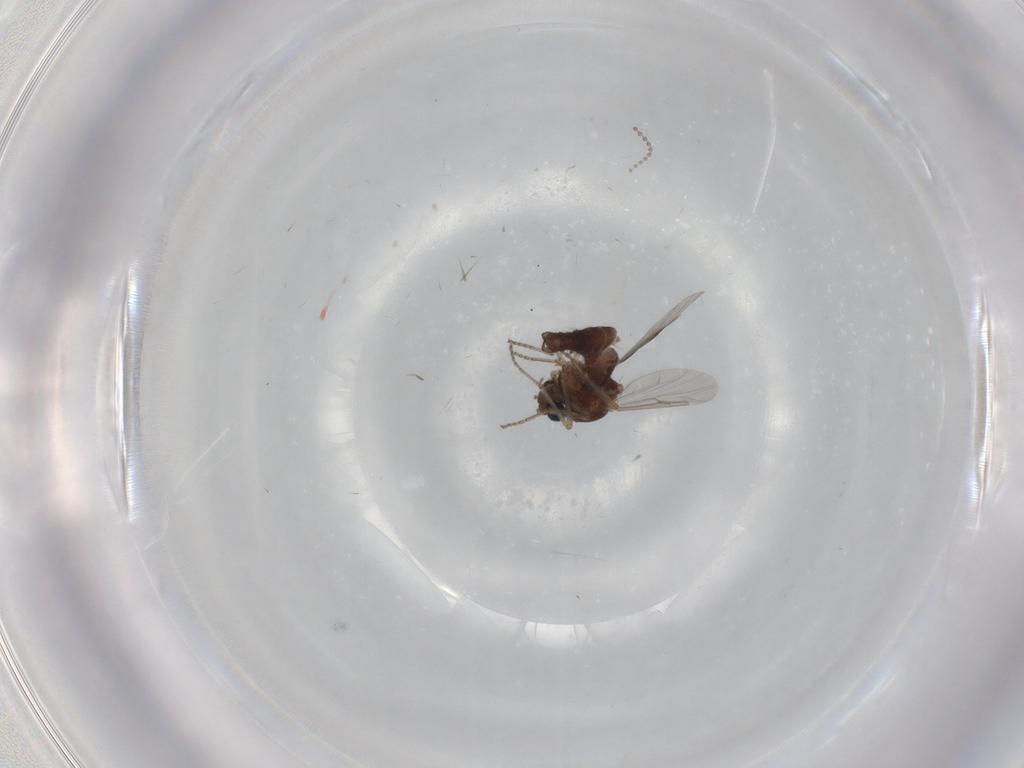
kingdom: Animalia
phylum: Arthropoda
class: Insecta
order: Diptera
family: Ceratopogonidae
